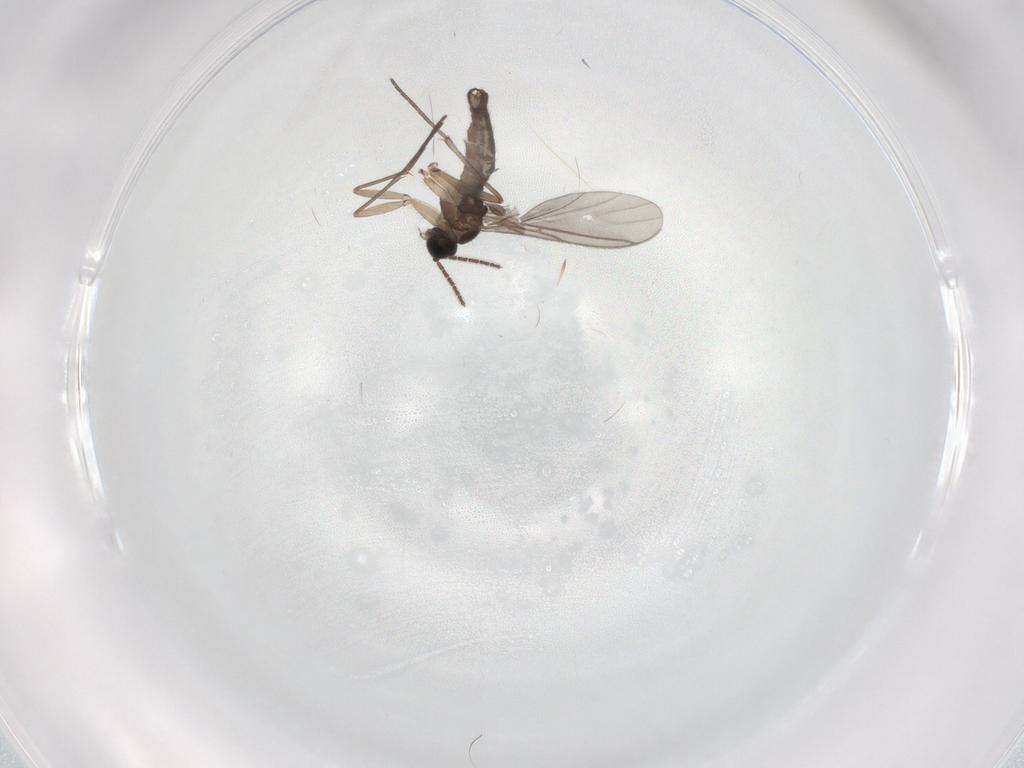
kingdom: Animalia
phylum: Arthropoda
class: Insecta
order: Diptera
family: Sciaridae
